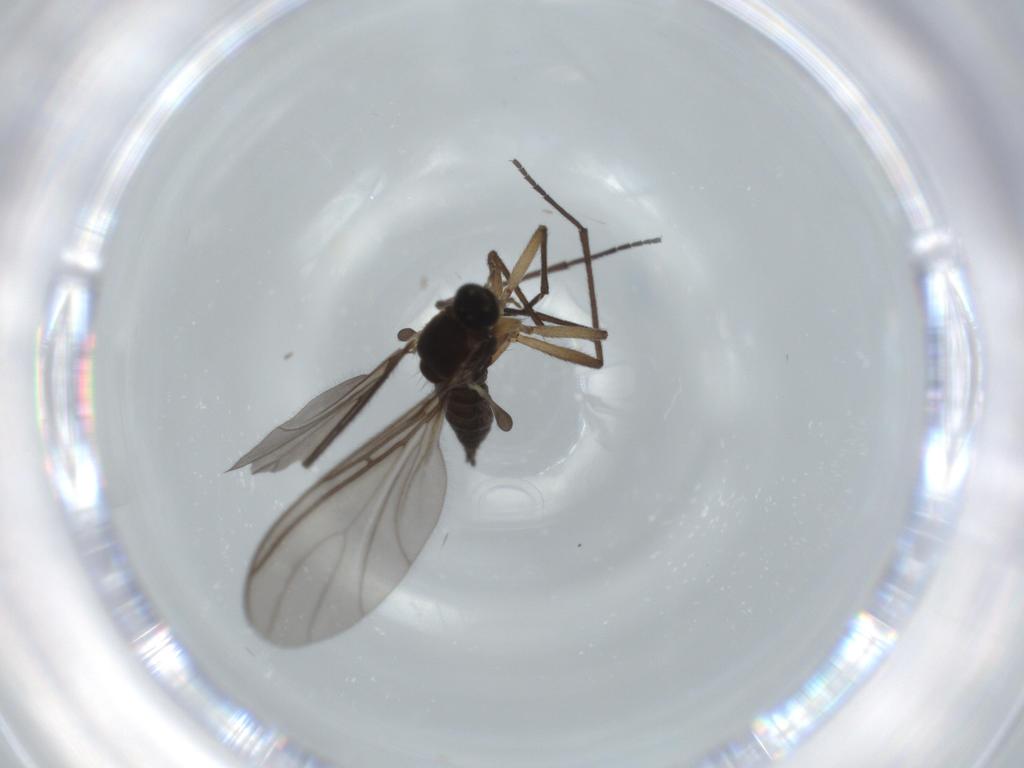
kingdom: Animalia
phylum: Arthropoda
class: Insecta
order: Diptera
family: Sciaridae
